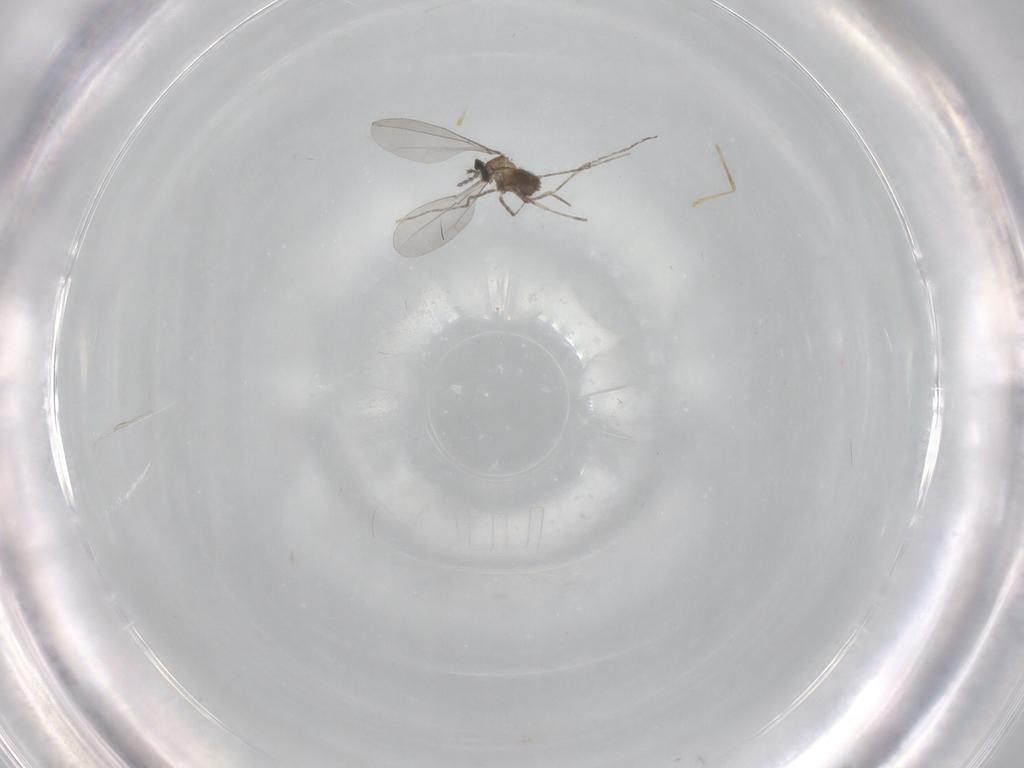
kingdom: Animalia
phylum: Arthropoda
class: Insecta
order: Diptera
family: Cecidomyiidae
